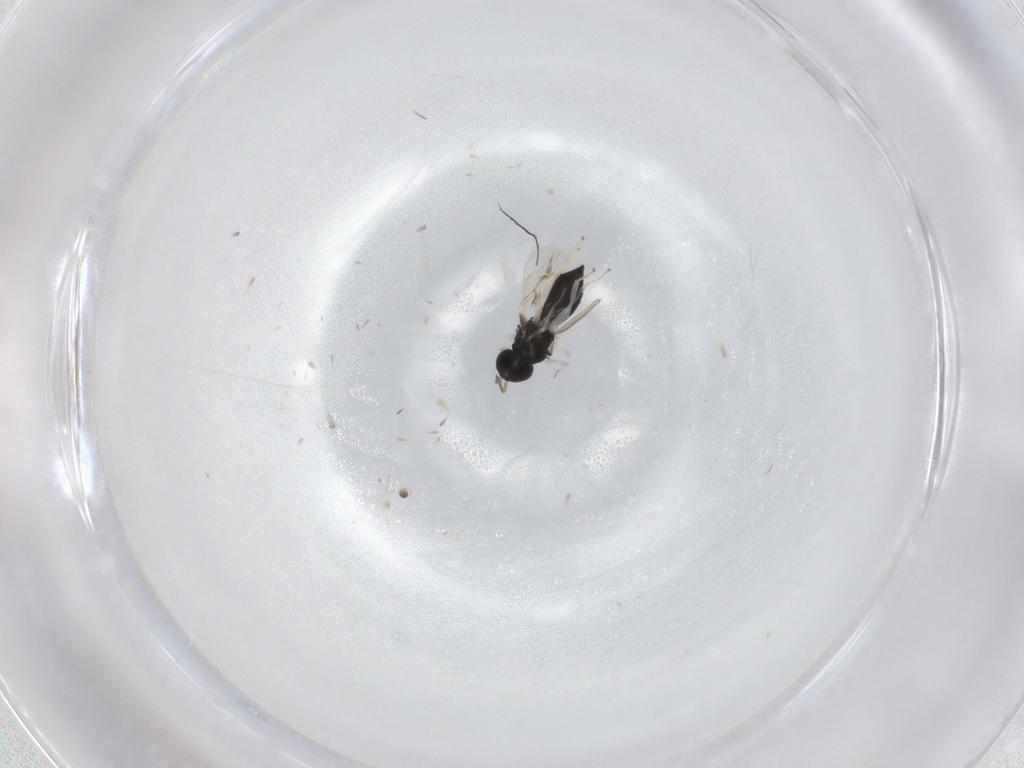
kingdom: Animalia
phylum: Arthropoda
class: Insecta
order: Hymenoptera
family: Eulophidae
